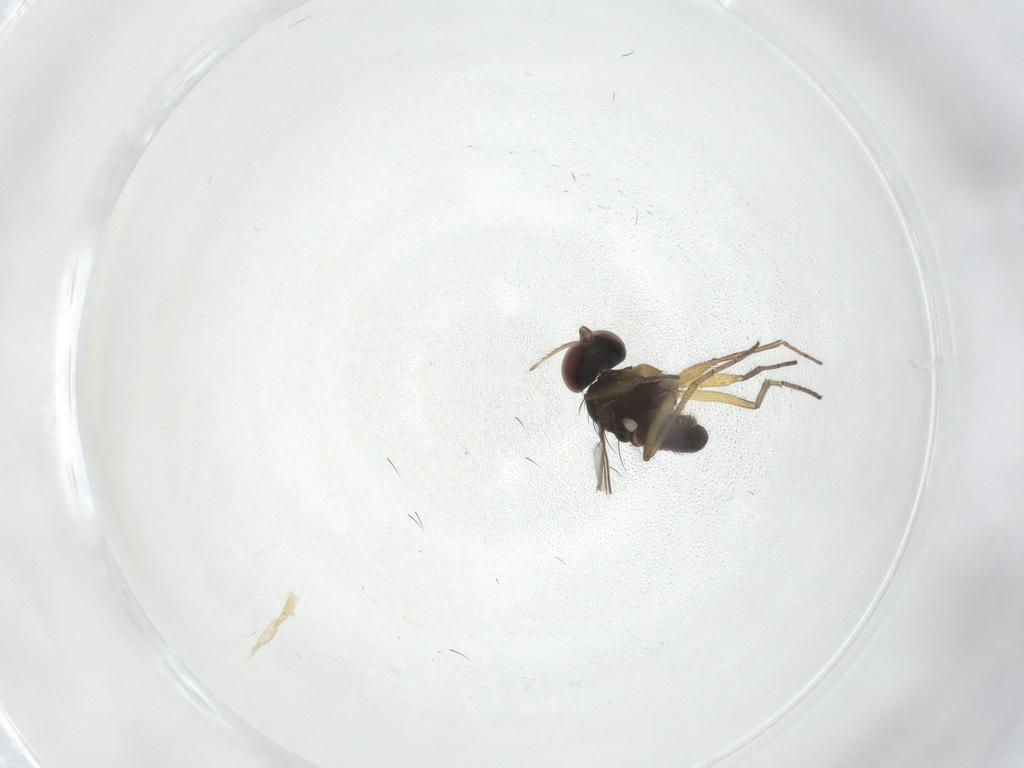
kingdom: Animalia
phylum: Arthropoda
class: Insecta
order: Diptera
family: Dolichopodidae
